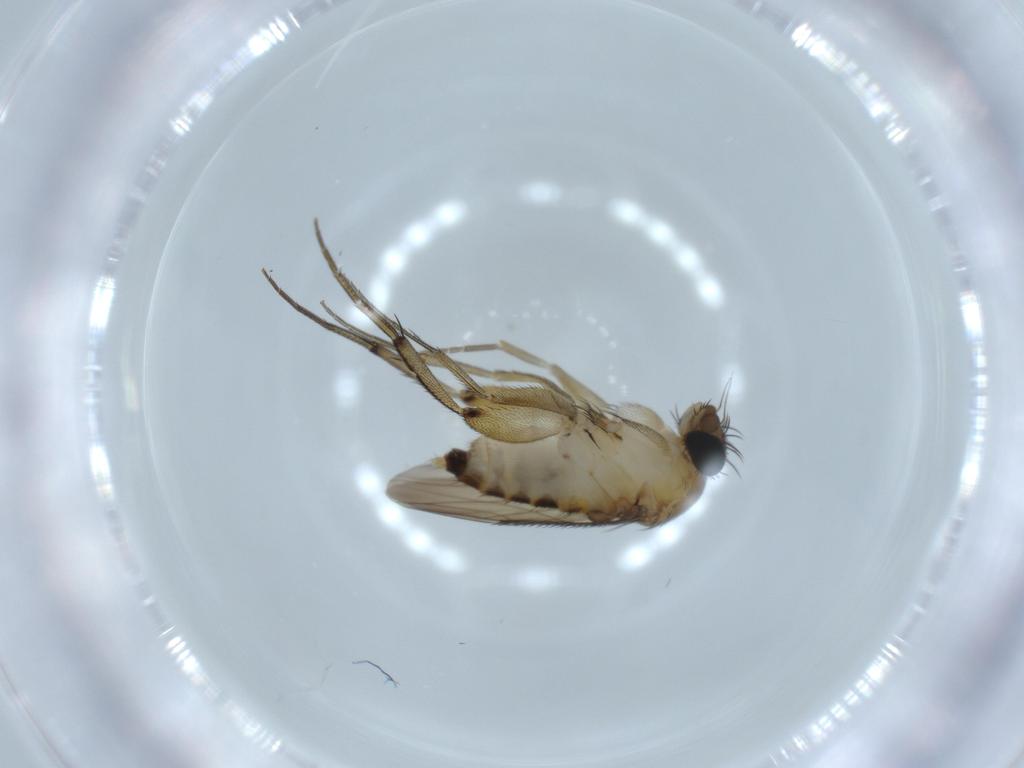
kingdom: Animalia
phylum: Arthropoda
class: Insecta
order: Diptera
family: Phoridae
